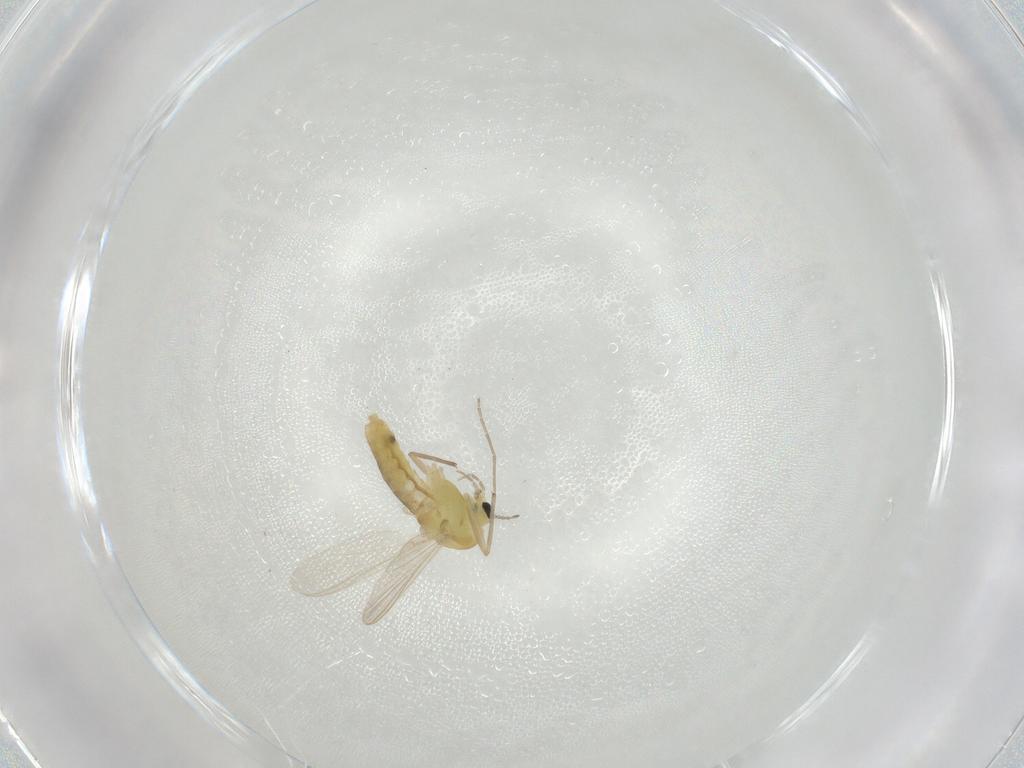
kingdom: Animalia
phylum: Arthropoda
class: Insecta
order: Diptera
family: Chironomidae
